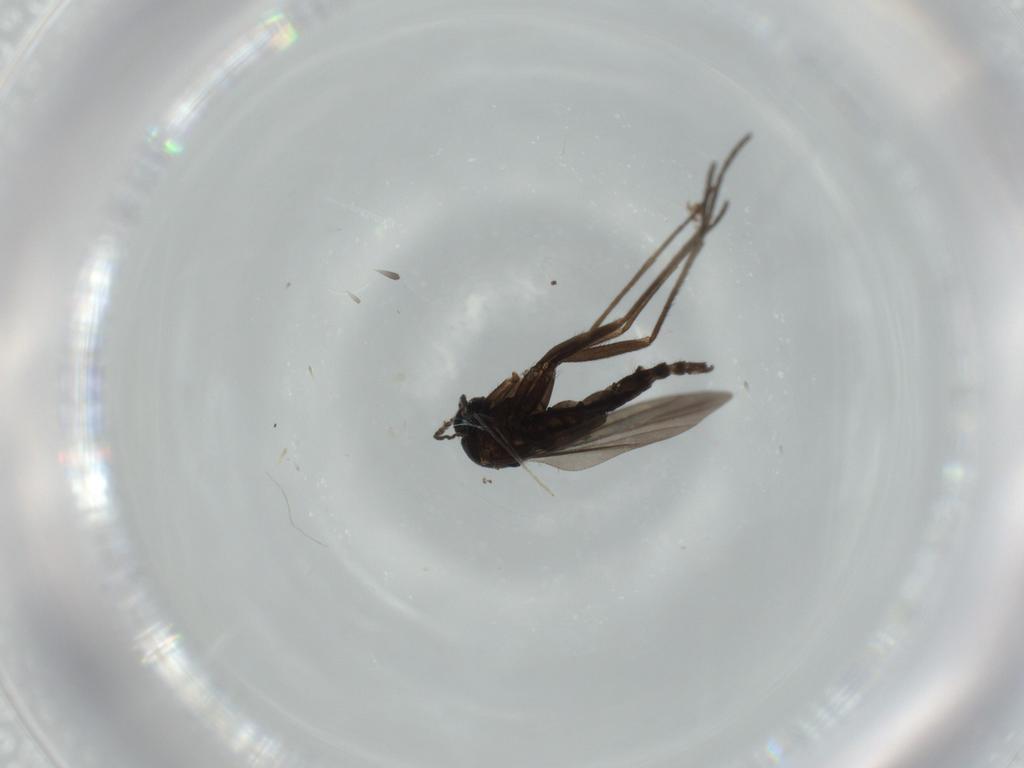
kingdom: Animalia
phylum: Arthropoda
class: Insecta
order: Diptera
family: Sciaridae
